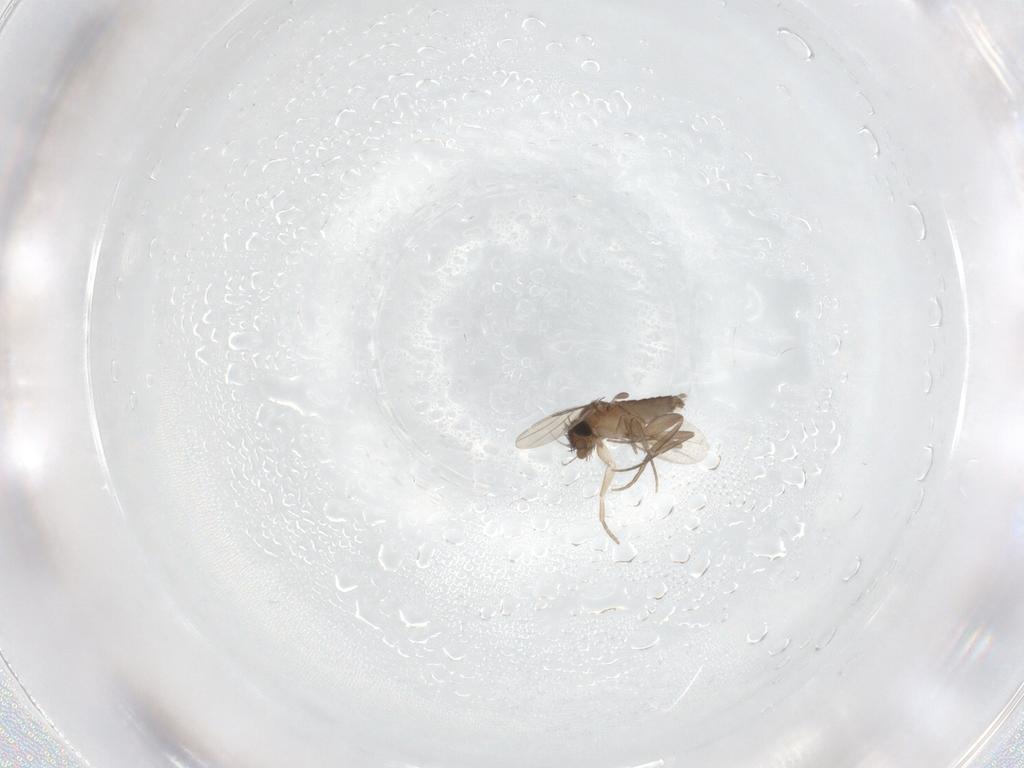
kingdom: Animalia
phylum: Arthropoda
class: Insecta
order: Diptera
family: Phoridae
